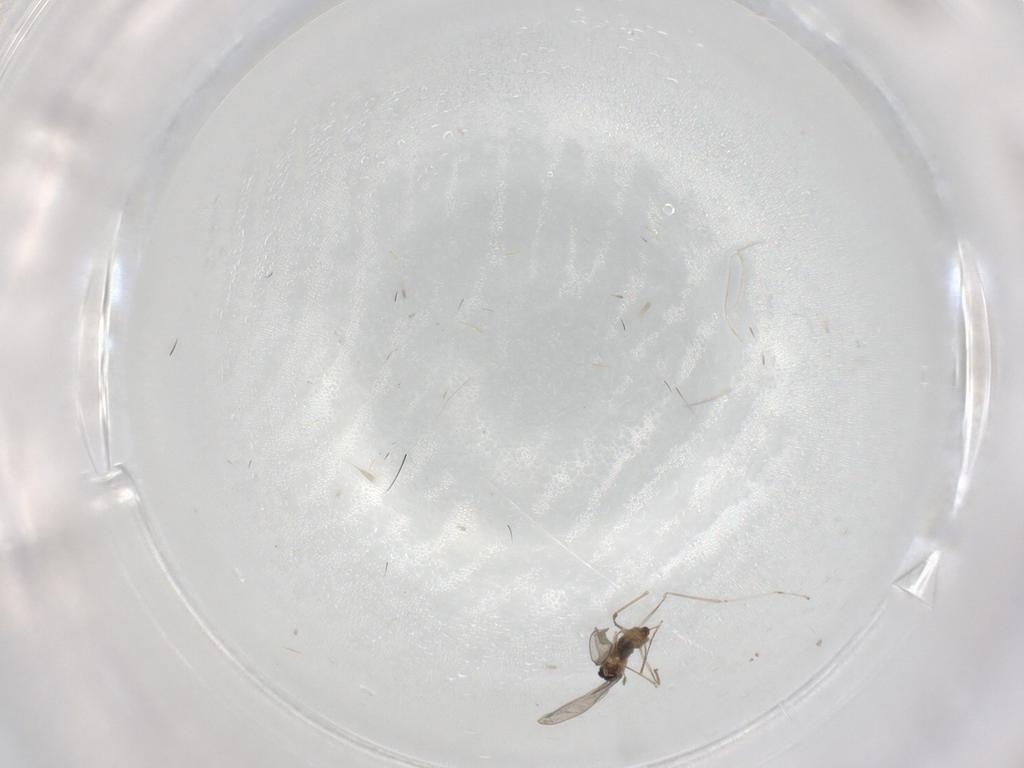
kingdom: Animalia
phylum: Arthropoda
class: Insecta
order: Diptera
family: Cecidomyiidae
